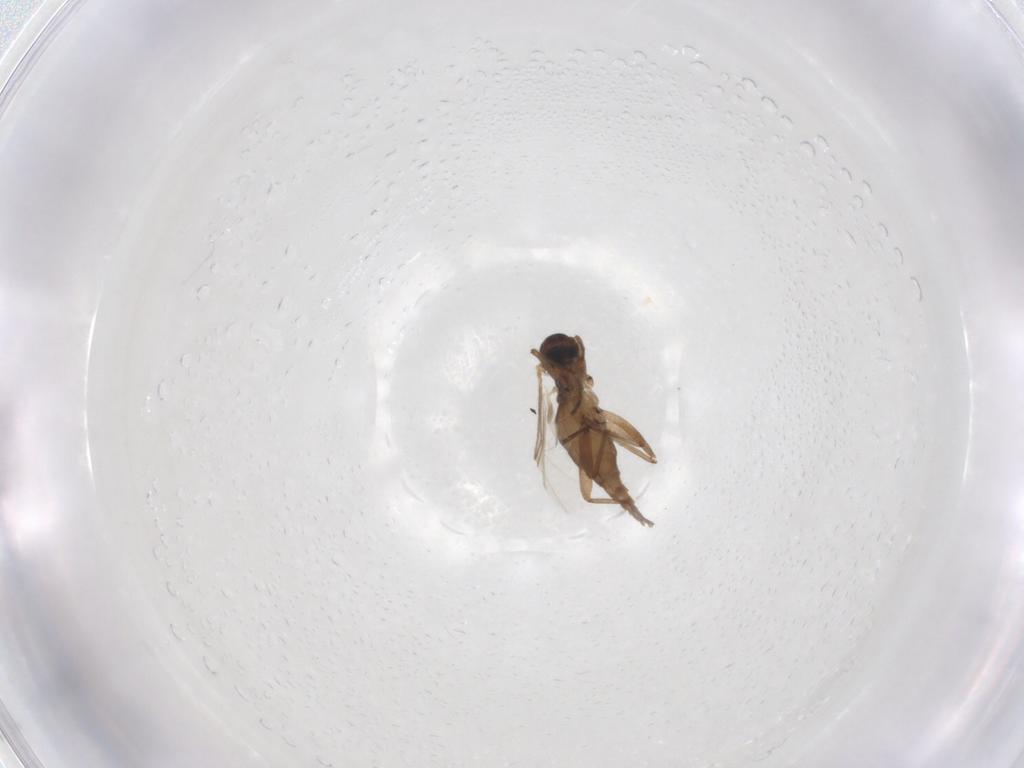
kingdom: Animalia
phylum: Arthropoda
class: Insecta
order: Diptera
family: Sciaridae
